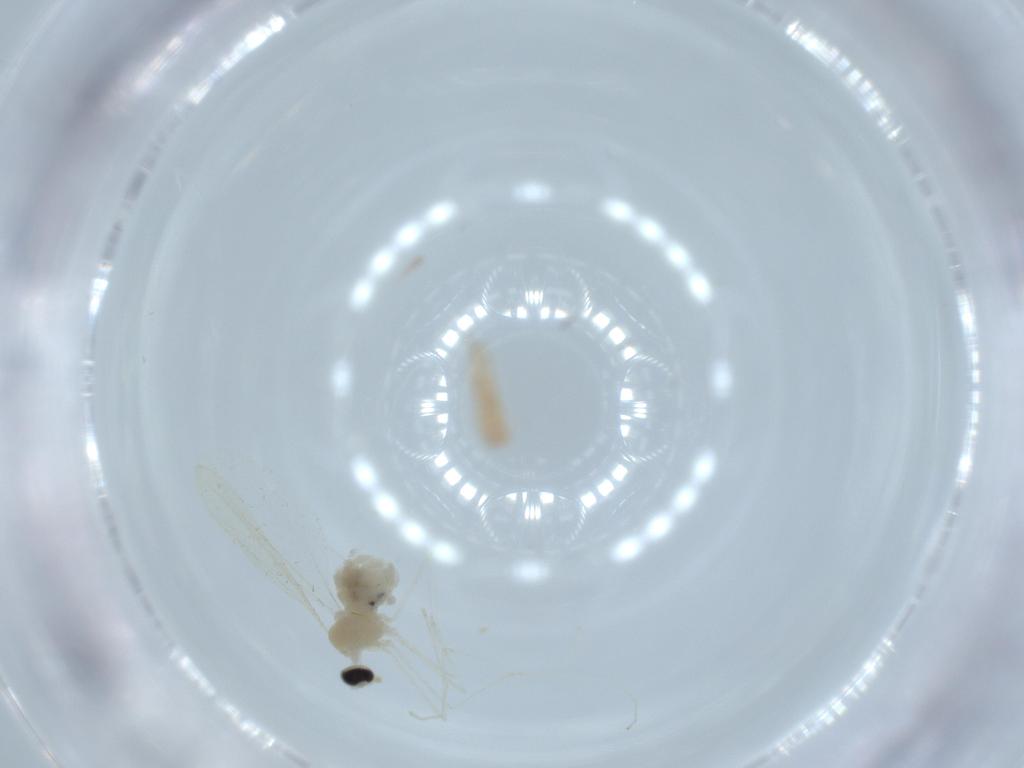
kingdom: Animalia
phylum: Arthropoda
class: Insecta
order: Diptera
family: Cecidomyiidae
